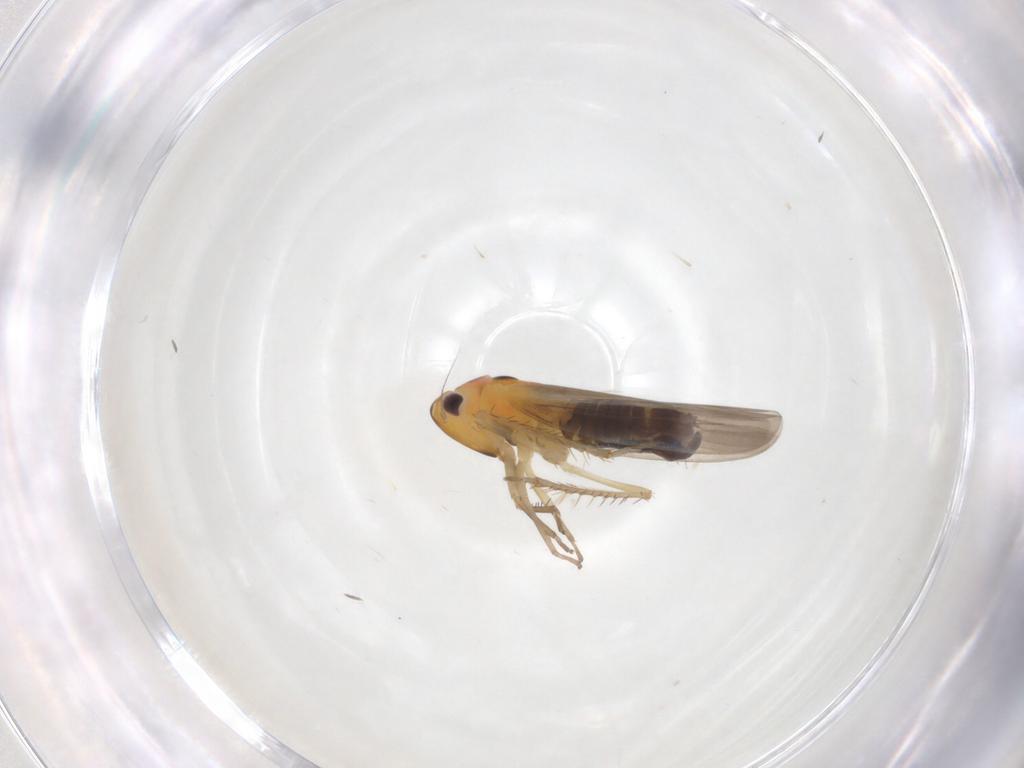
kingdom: Animalia
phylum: Arthropoda
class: Insecta
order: Hemiptera
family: Cicadellidae
